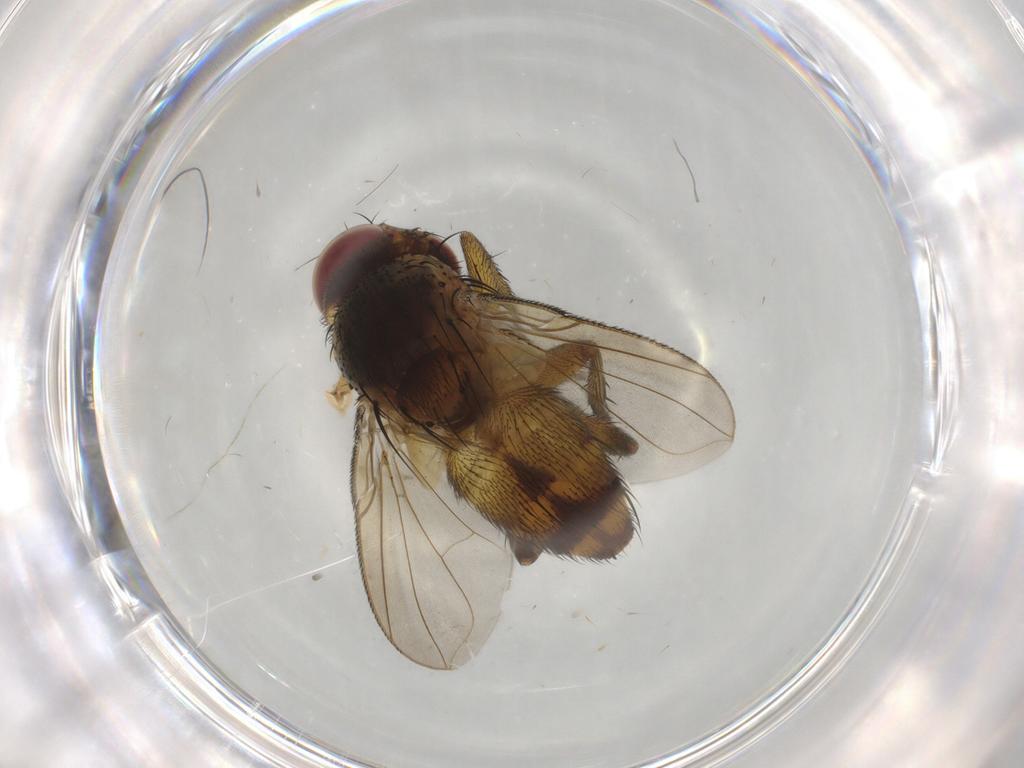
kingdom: Animalia
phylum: Arthropoda
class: Insecta
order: Diptera
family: Tachinidae
